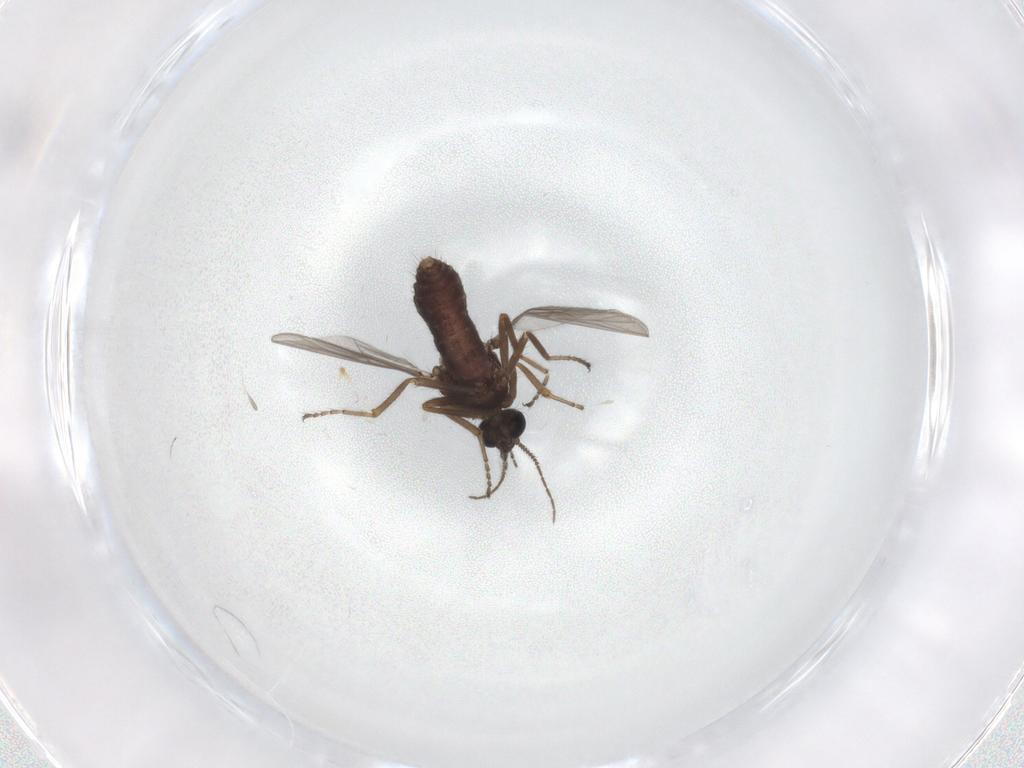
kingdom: Animalia
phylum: Arthropoda
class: Insecta
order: Diptera
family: Ceratopogonidae
